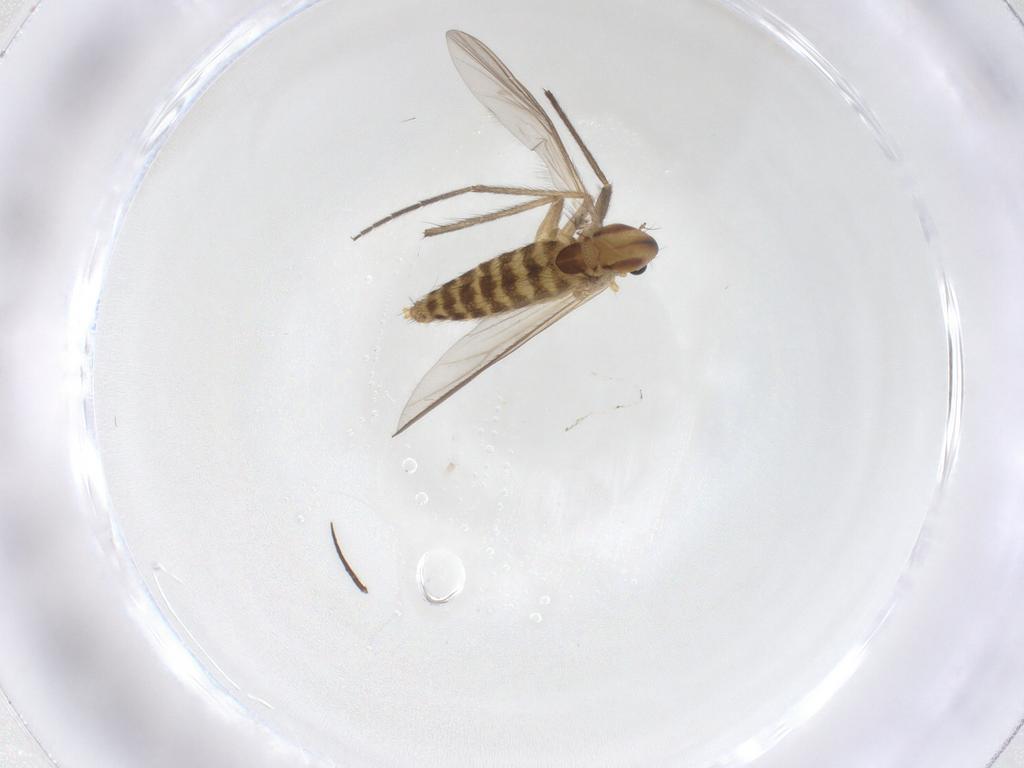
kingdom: Animalia
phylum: Arthropoda
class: Insecta
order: Diptera
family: Chironomidae
